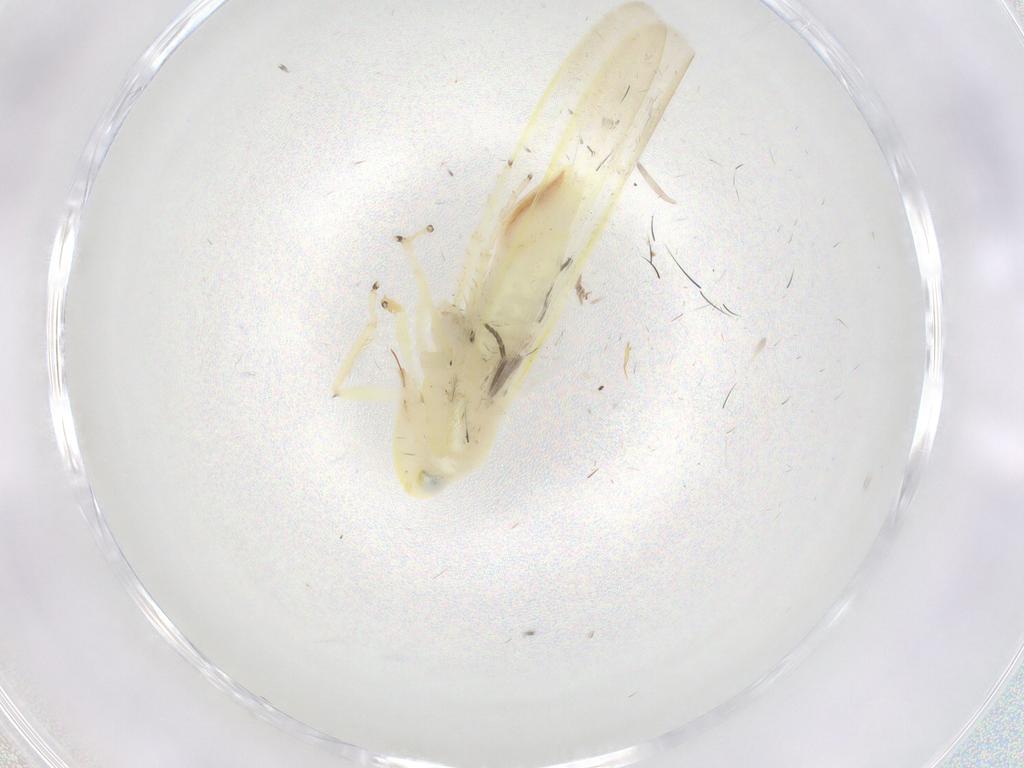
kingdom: Animalia
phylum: Arthropoda
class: Insecta
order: Hemiptera
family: Cicadellidae
